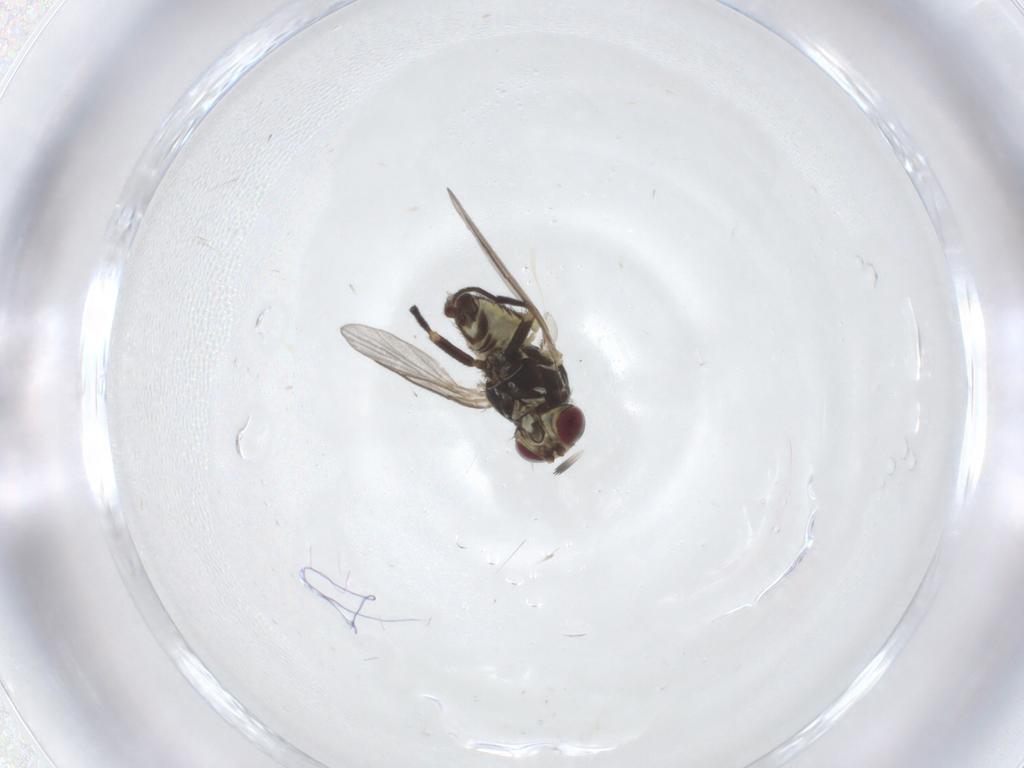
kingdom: Animalia
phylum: Arthropoda
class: Insecta
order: Diptera
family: Agromyzidae
